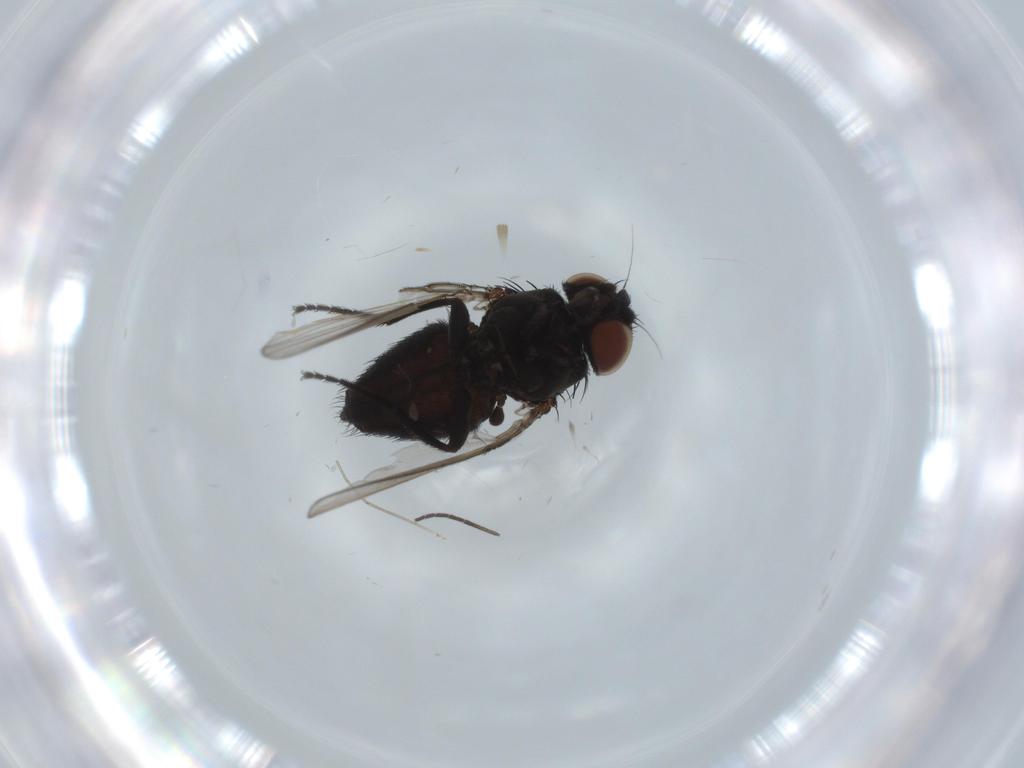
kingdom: Animalia
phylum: Arthropoda
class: Insecta
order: Diptera
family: Milichiidae
